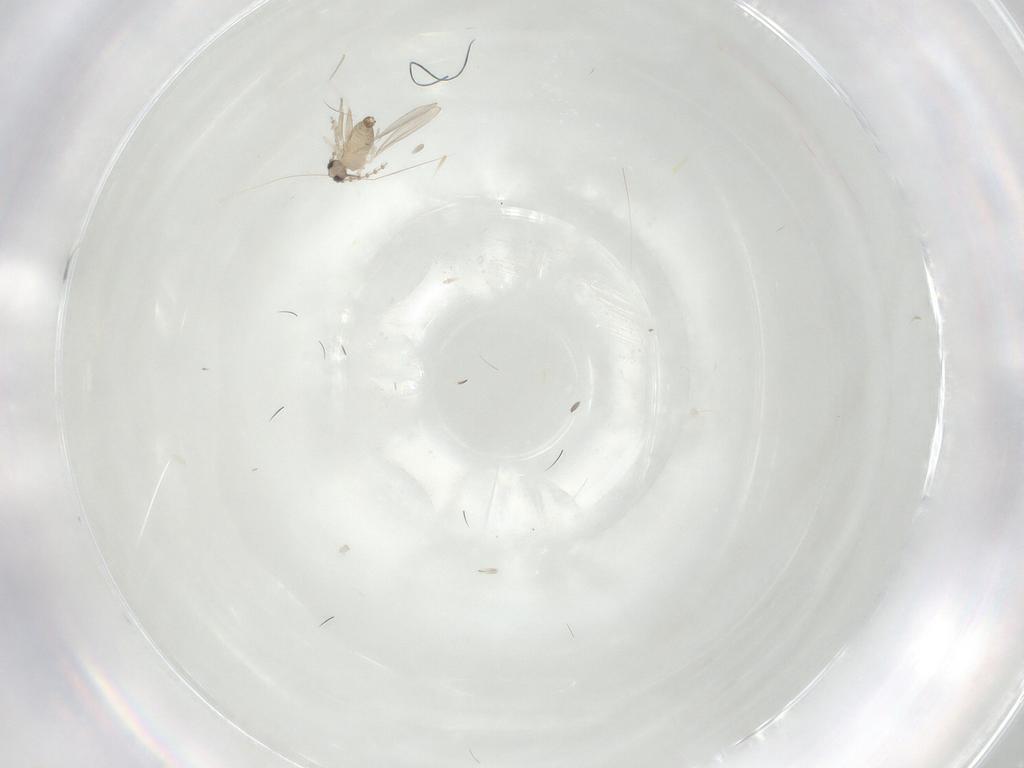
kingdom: Animalia
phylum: Arthropoda
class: Insecta
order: Diptera
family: Cecidomyiidae
